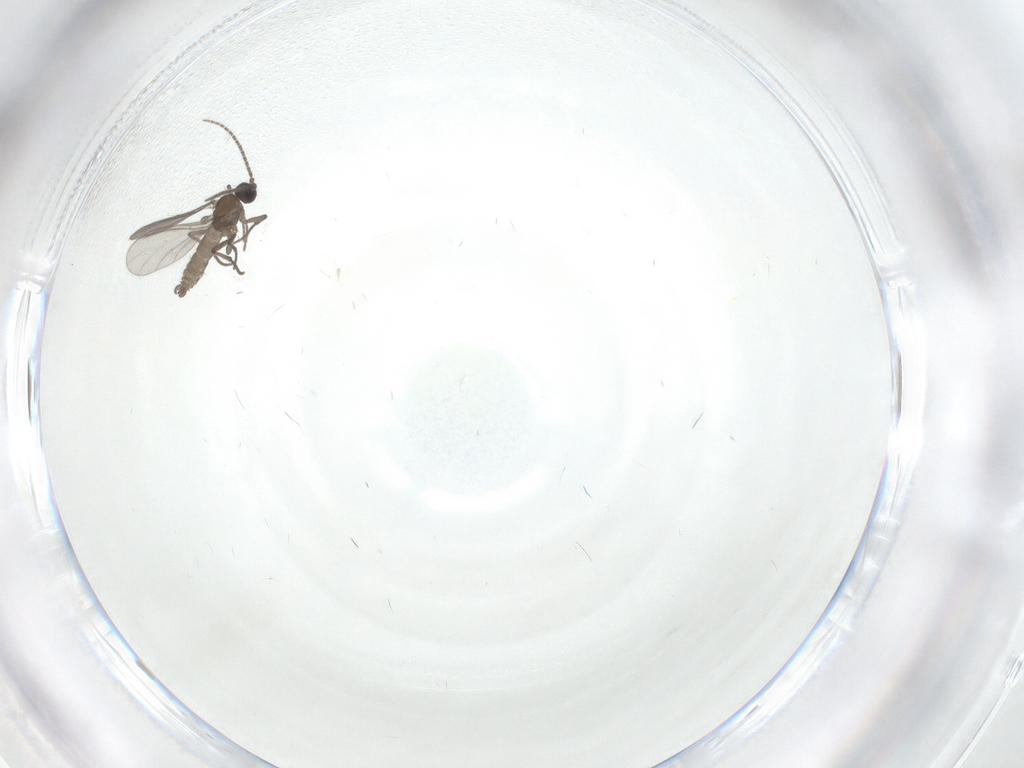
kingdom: Animalia
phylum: Arthropoda
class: Insecta
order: Diptera
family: Sciaridae
